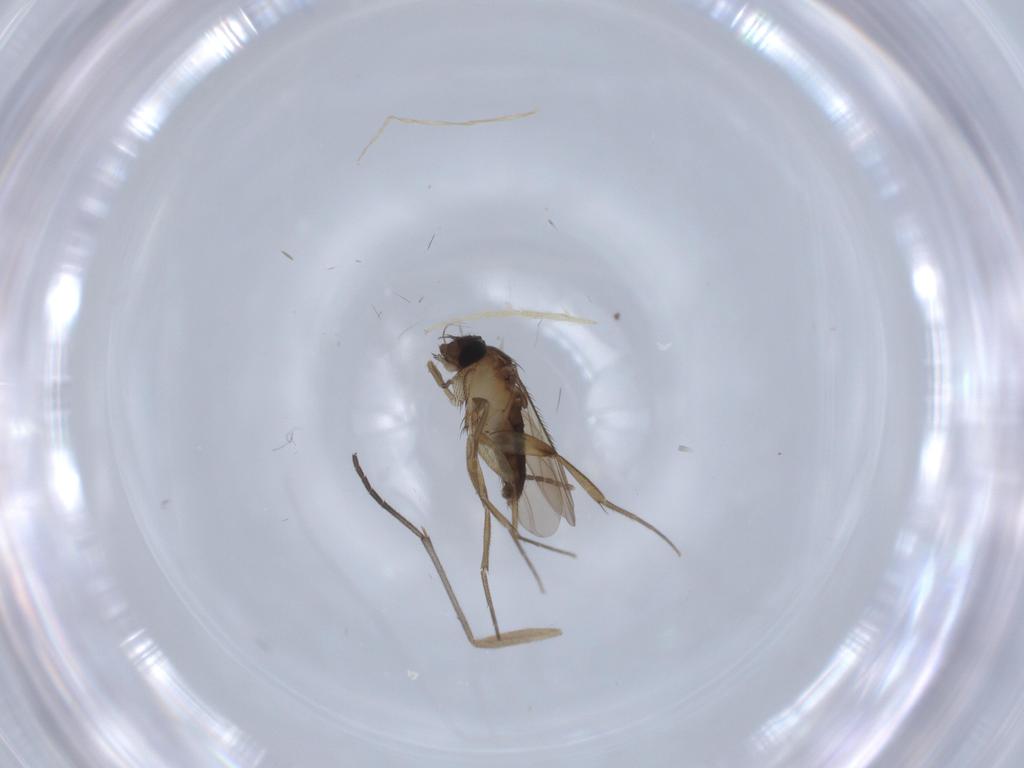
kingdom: Animalia
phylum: Arthropoda
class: Insecta
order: Diptera
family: Phoridae
